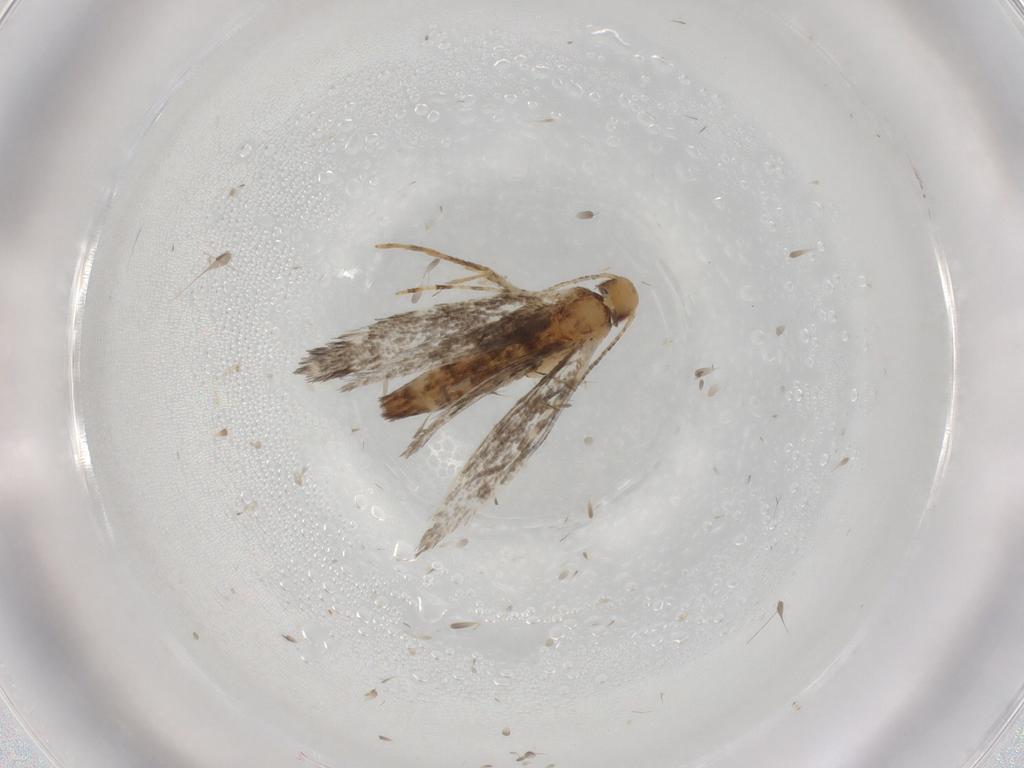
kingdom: Animalia
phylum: Arthropoda
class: Insecta
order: Lepidoptera
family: Gracillariidae
